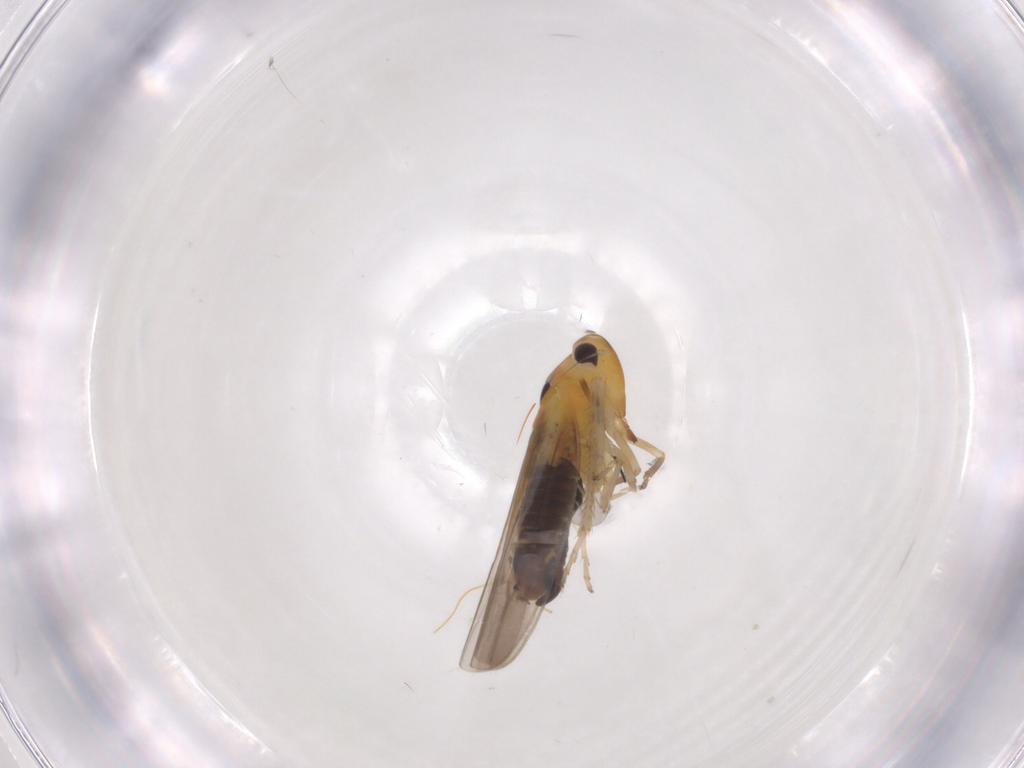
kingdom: Animalia
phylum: Arthropoda
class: Insecta
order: Hemiptera
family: Cicadellidae
